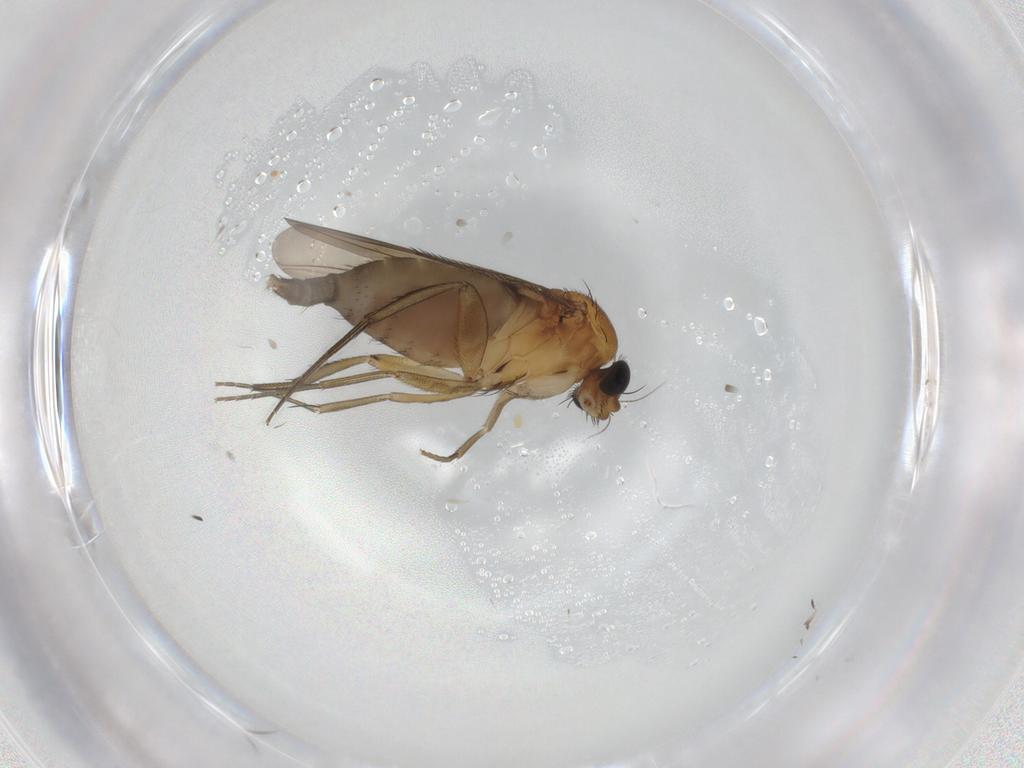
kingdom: Animalia
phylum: Arthropoda
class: Insecta
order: Diptera
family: Phoridae
